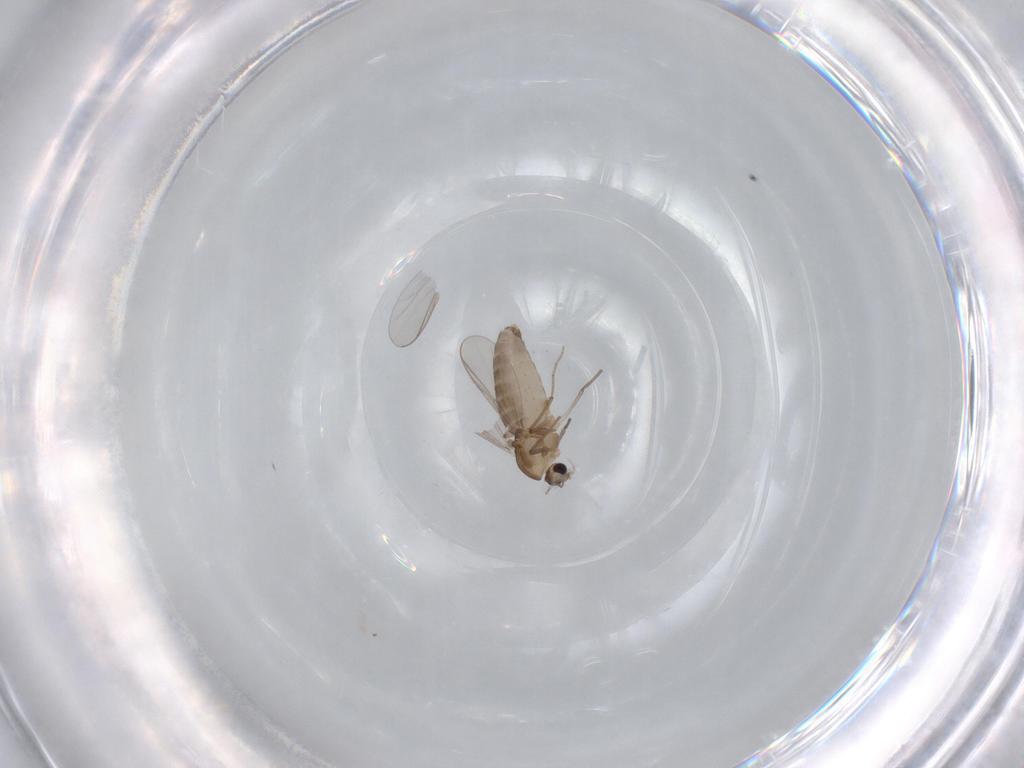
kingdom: Animalia
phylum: Arthropoda
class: Insecta
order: Diptera
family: Chironomidae
